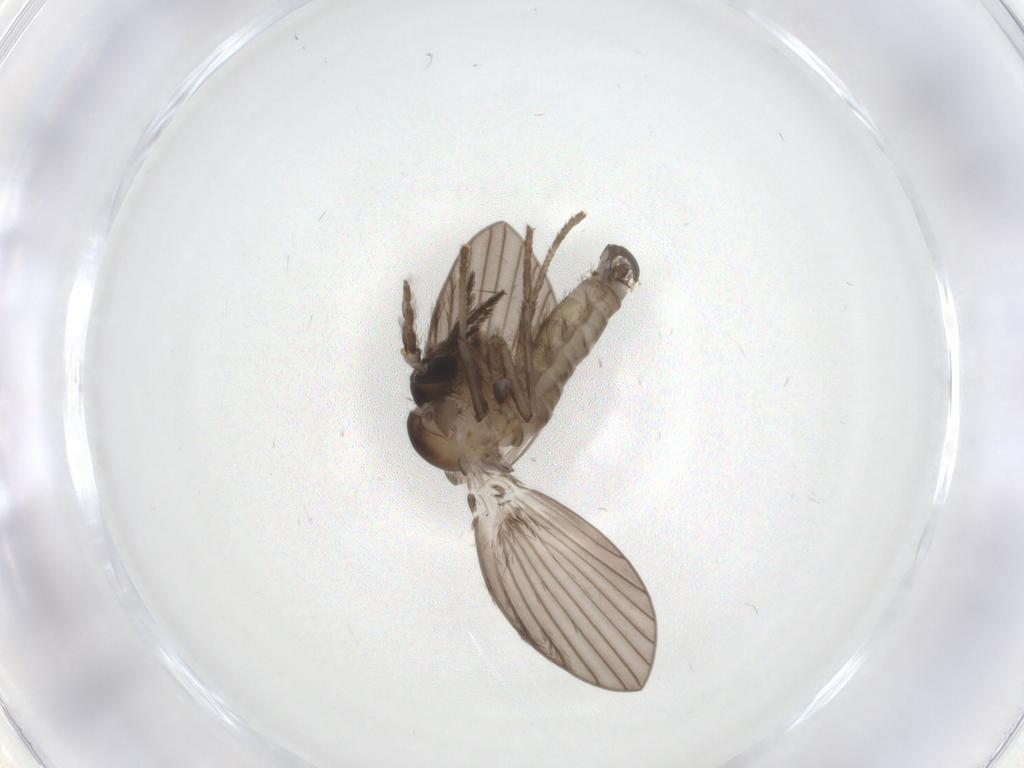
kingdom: Animalia
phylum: Arthropoda
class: Insecta
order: Diptera
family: Psychodidae
